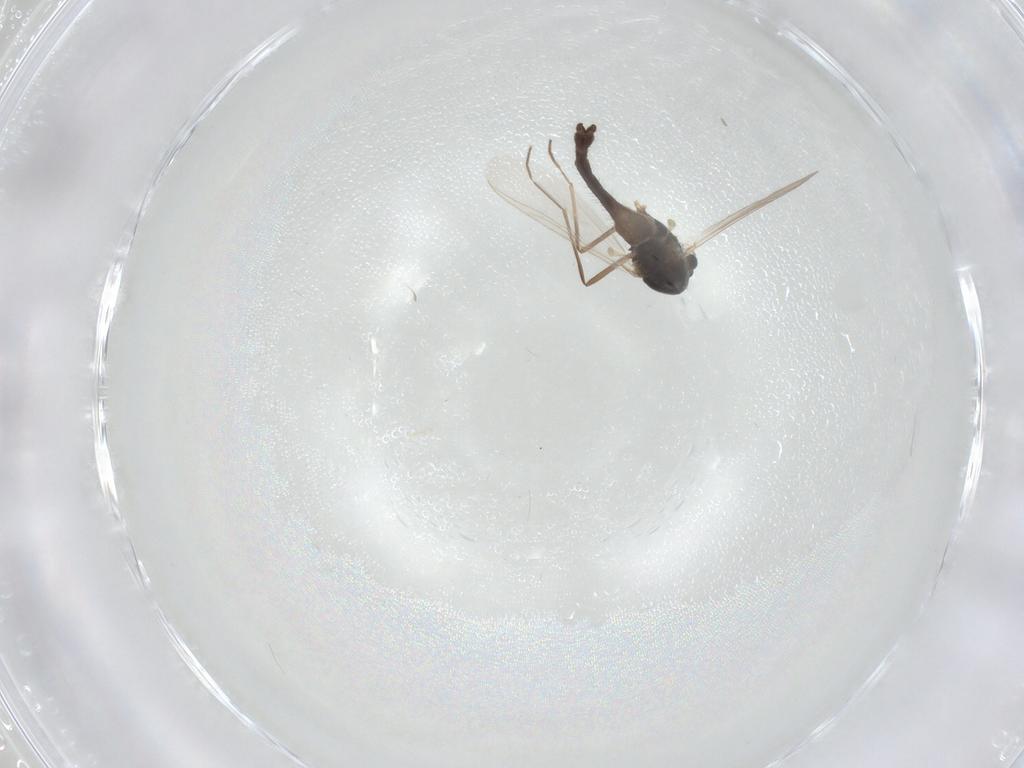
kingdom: Animalia
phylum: Arthropoda
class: Insecta
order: Diptera
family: Chironomidae
